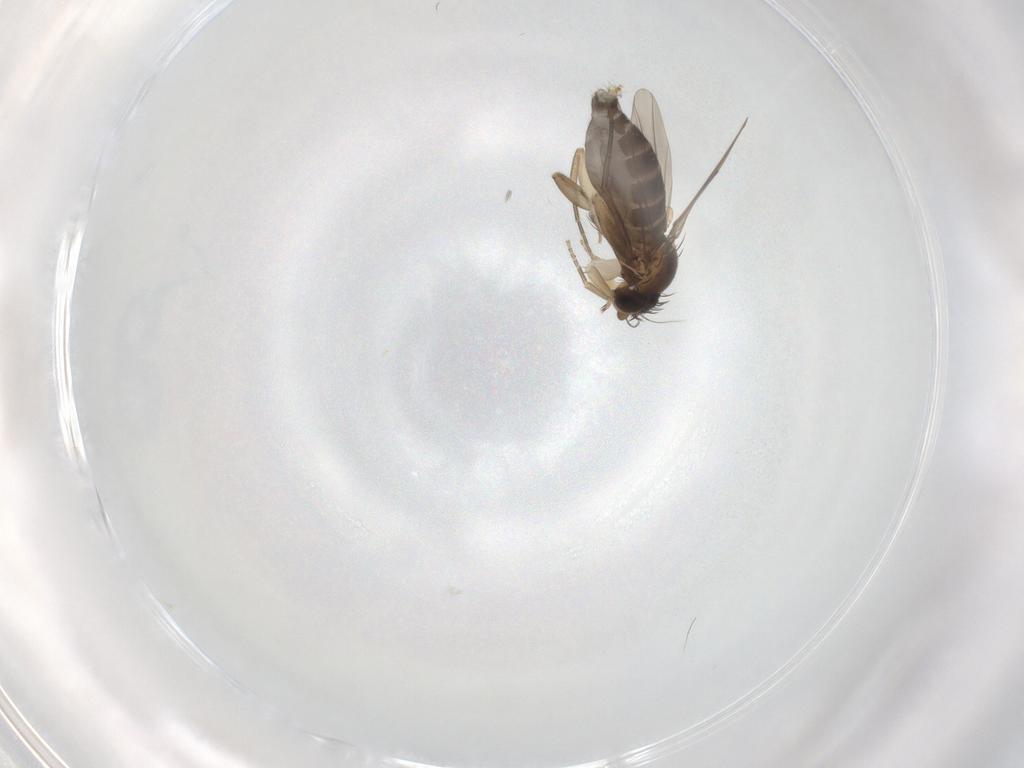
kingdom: Animalia
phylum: Arthropoda
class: Insecta
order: Diptera
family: Phoridae
